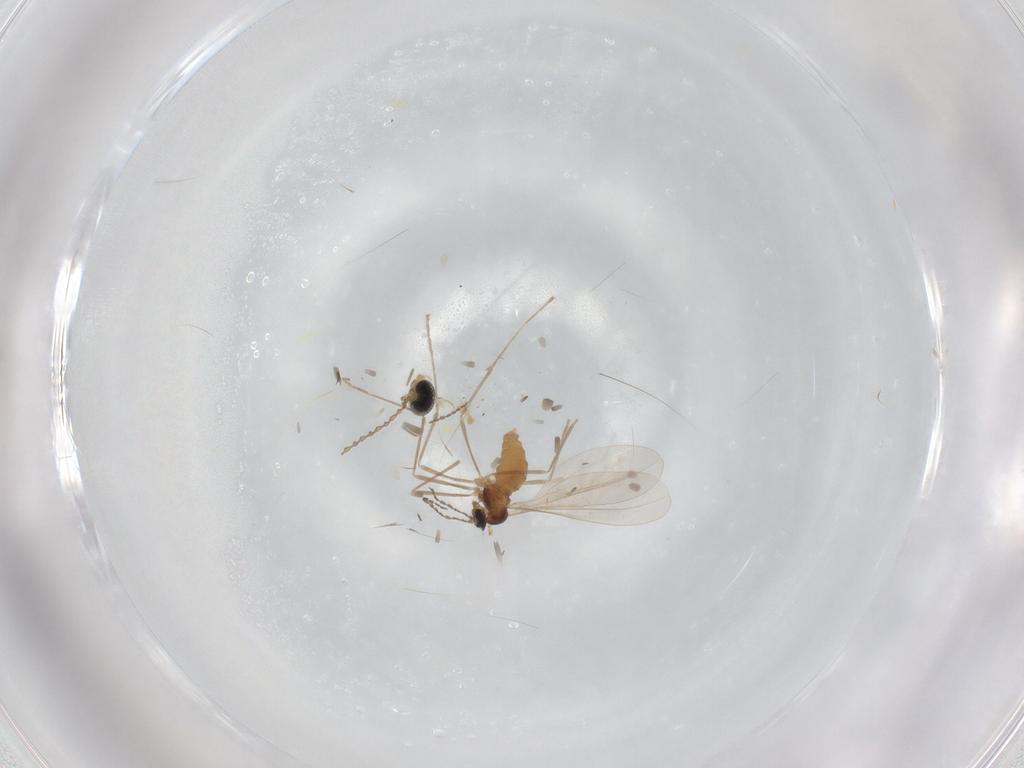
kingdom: Animalia
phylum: Arthropoda
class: Insecta
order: Diptera
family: Cecidomyiidae
